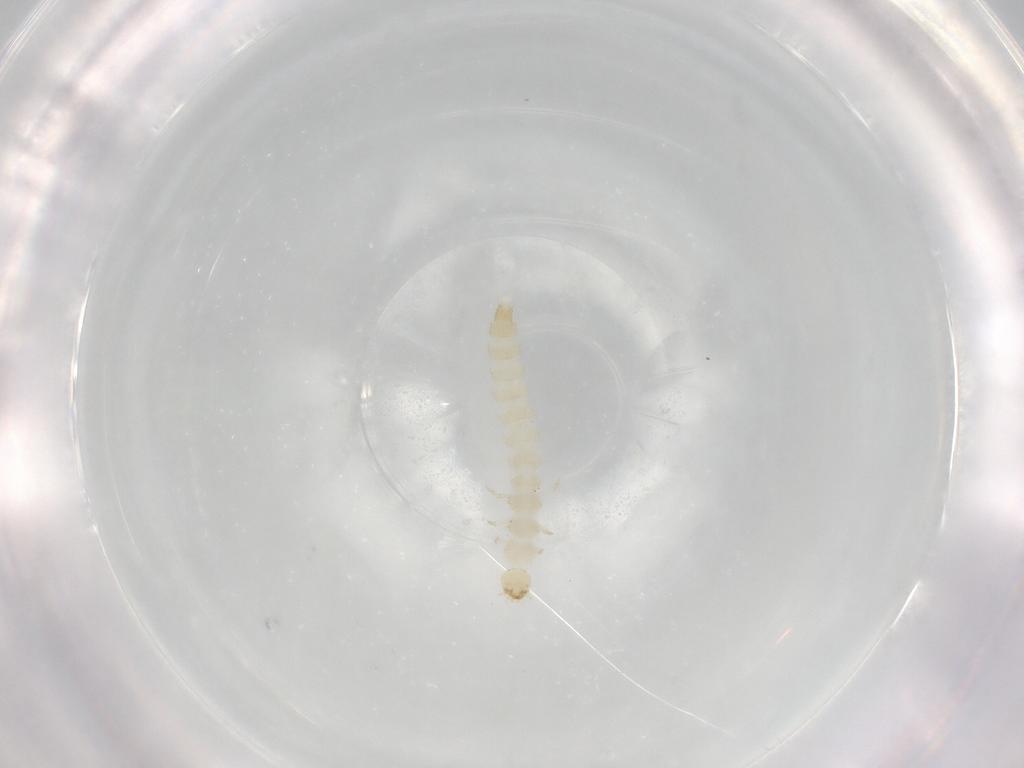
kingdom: Animalia
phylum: Arthropoda
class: Insecta
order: Coleoptera
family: Staphylinidae
